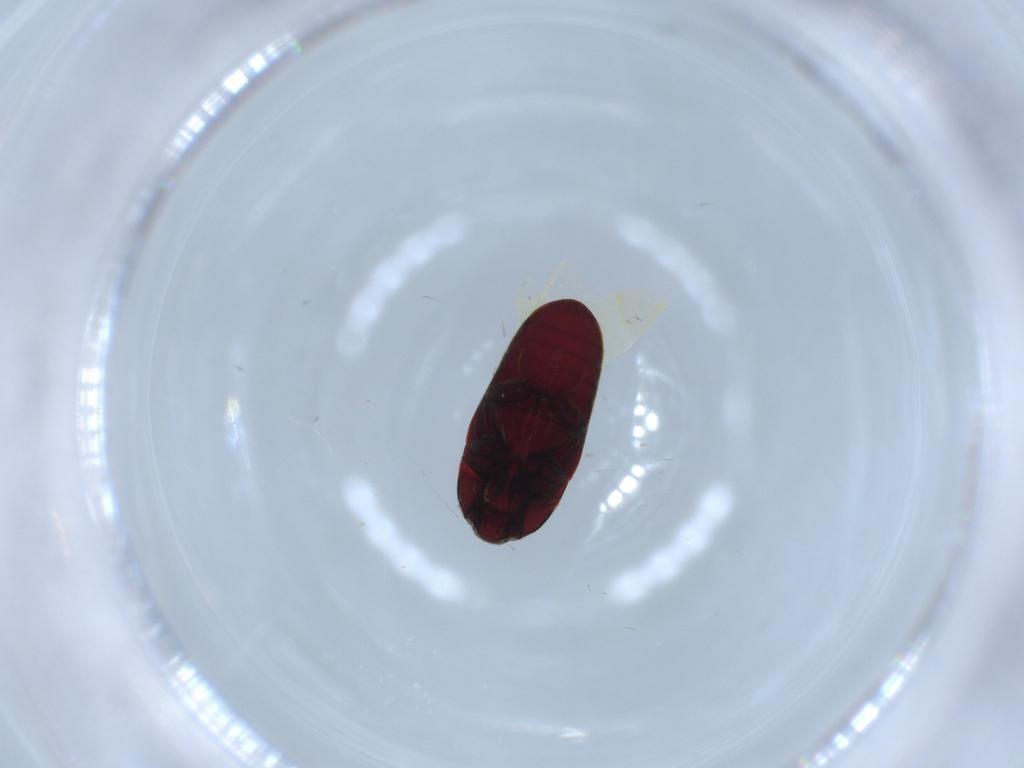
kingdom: Animalia
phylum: Arthropoda
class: Insecta
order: Coleoptera
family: Throscidae
